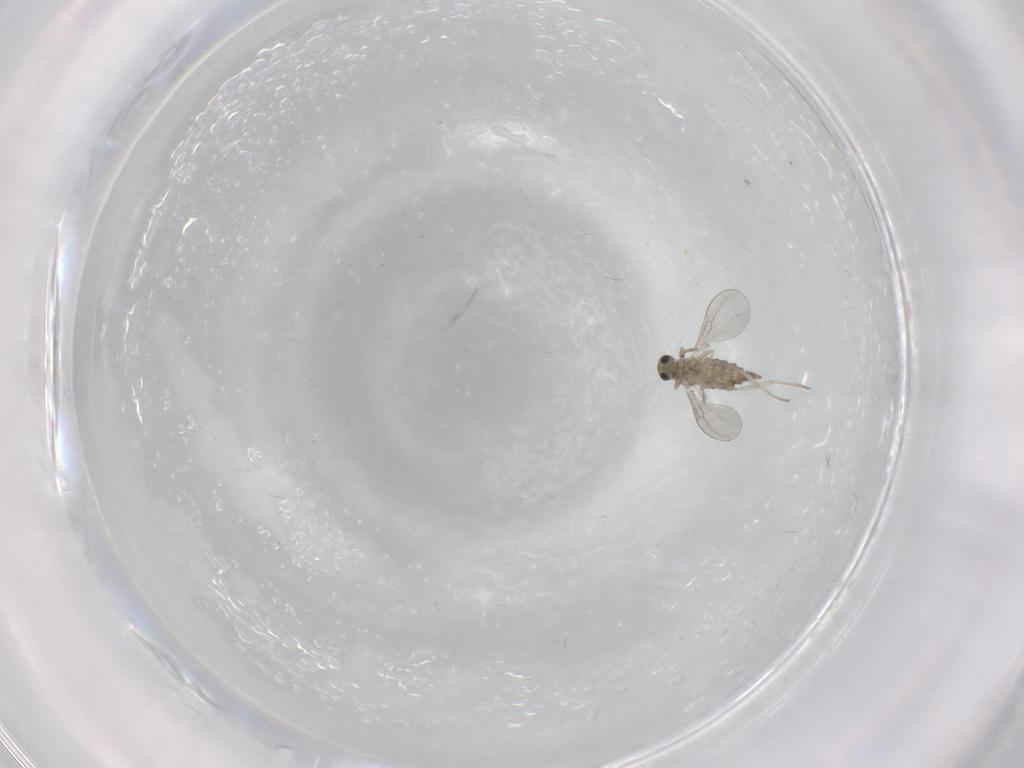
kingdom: Animalia
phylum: Arthropoda
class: Insecta
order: Diptera
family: Cecidomyiidae
